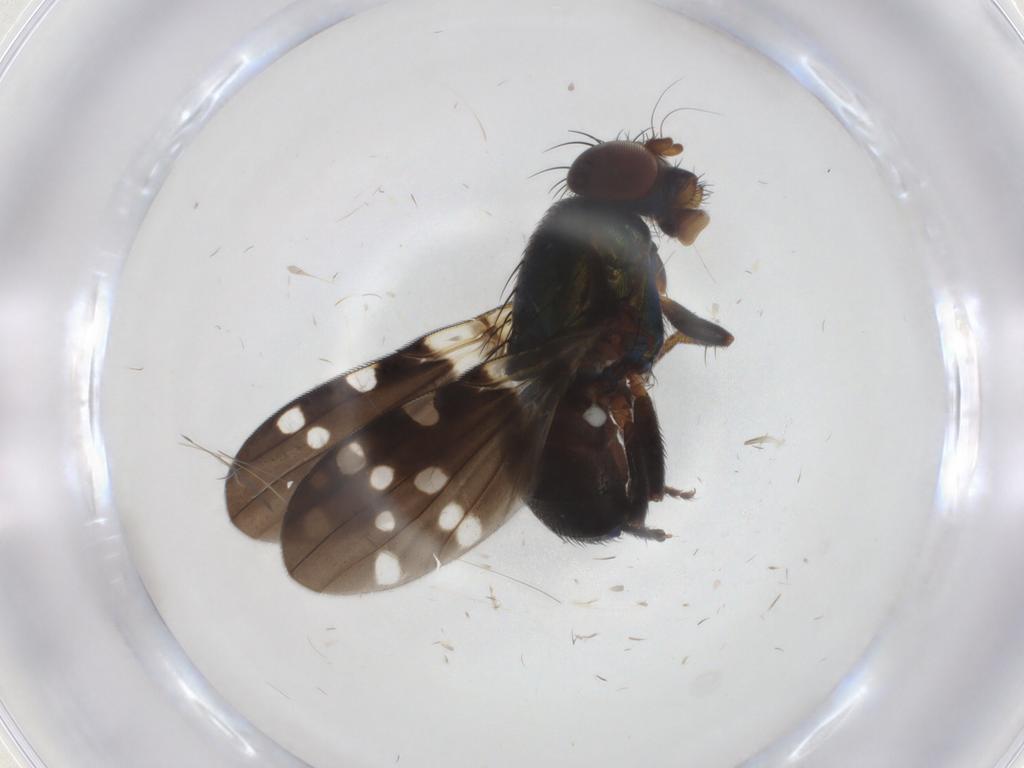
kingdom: Animalia
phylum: Arthropoda
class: Insecta
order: Diptera
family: Ulidiidae
